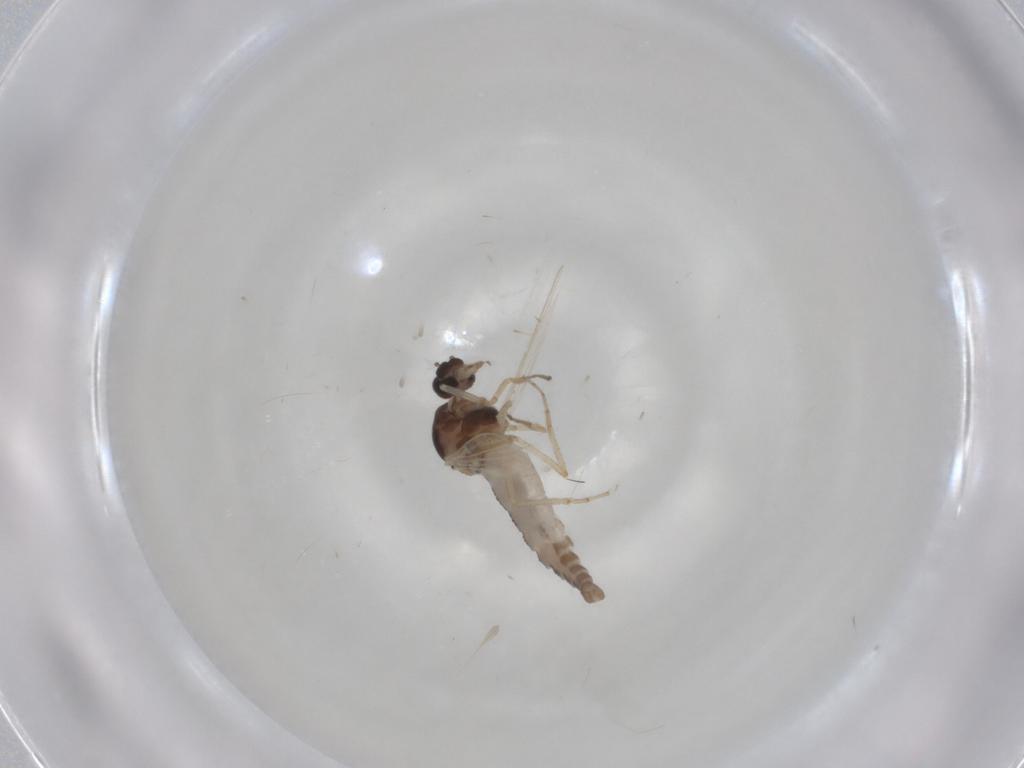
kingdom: Animalia
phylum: Arthropoda
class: Insecta
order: Diptera
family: Ceratopogonidae
